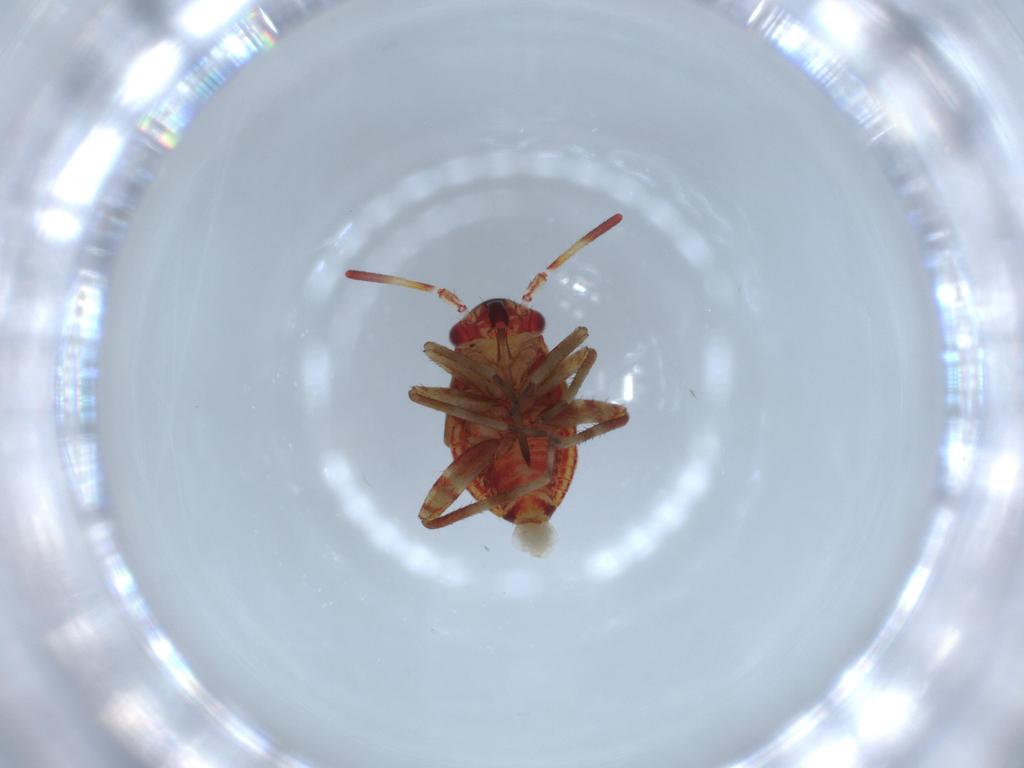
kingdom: Animalia
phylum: Arthropoda
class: Insecta
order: Hemiptera
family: Miridae
